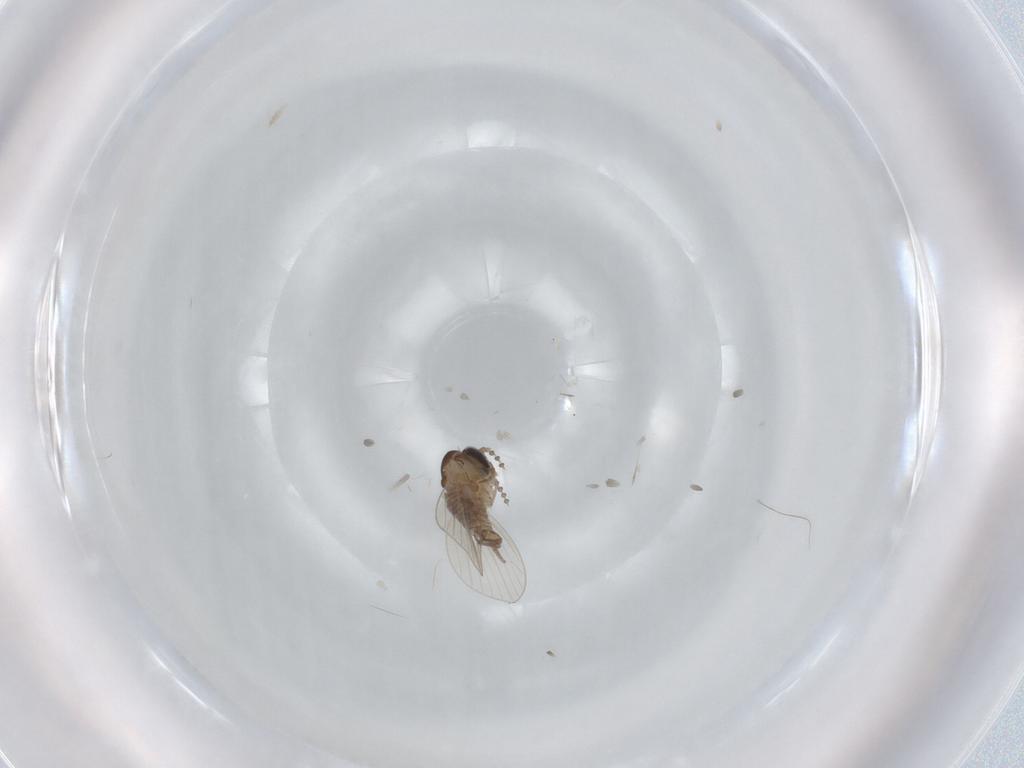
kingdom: Animalia
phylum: Arthropoda
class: Insecta
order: Diptera
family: Psychodidae
